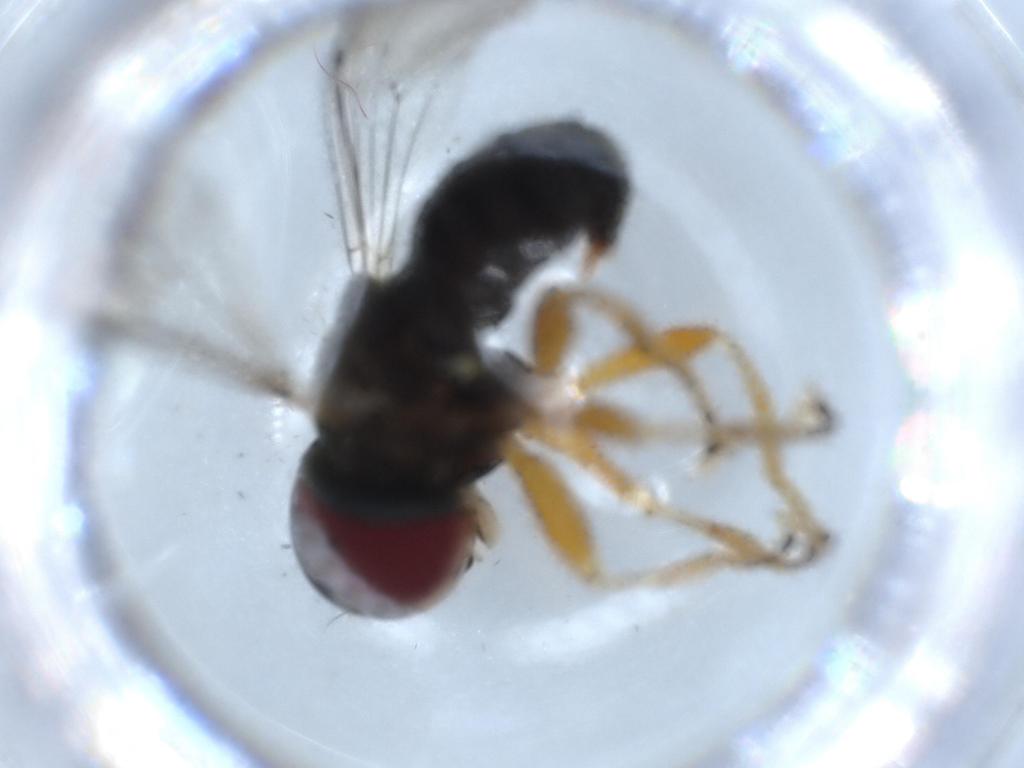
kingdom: Animalia
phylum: Arthropoda
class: Insecta
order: Diptera
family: Pipunculidae
